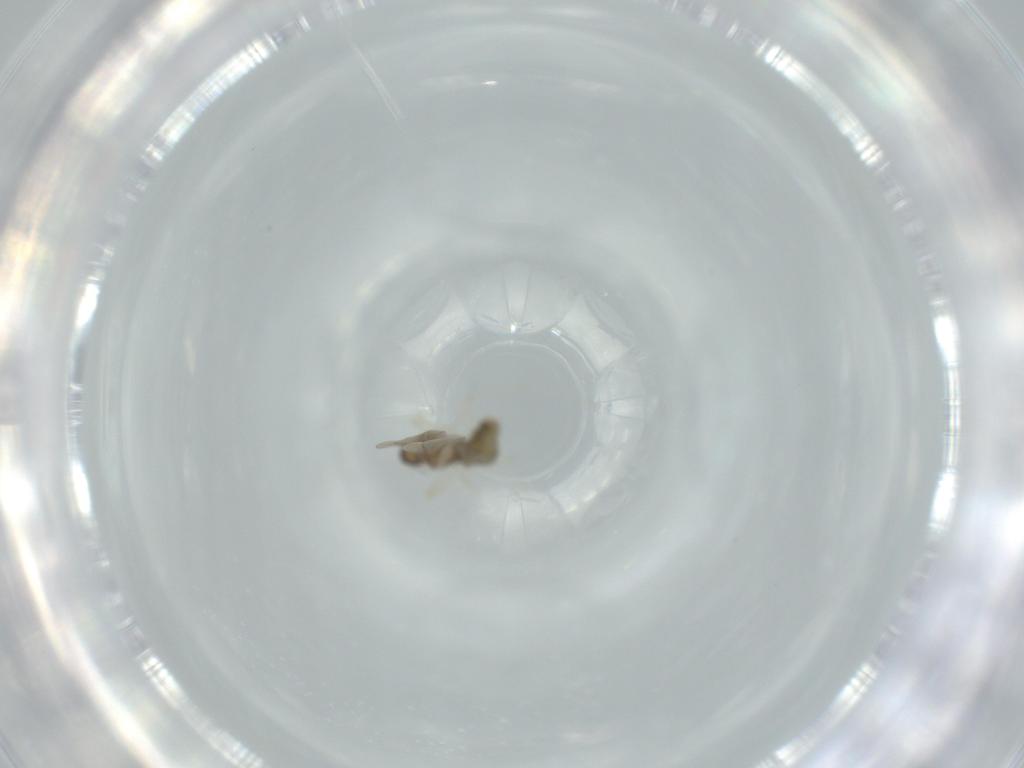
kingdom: Animalia
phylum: Arthropoda
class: Insecta
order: Diptera
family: Cecidomyiidae
